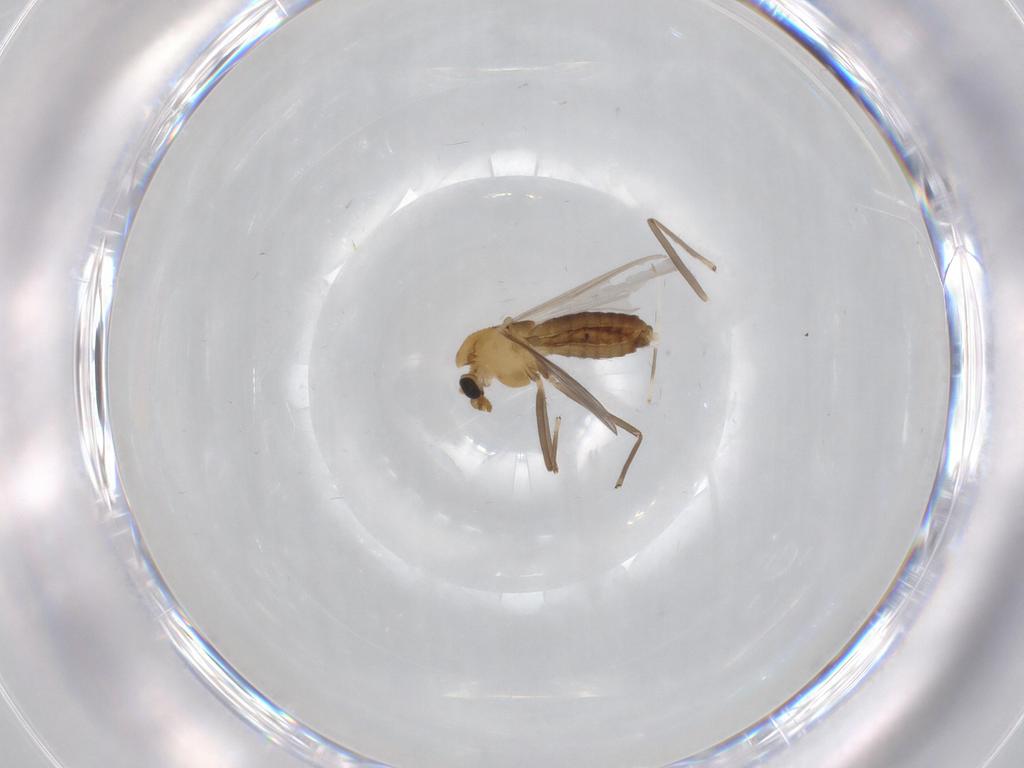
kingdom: Animalia
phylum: Arthropoda
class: Insecta
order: Diptera
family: Chironomidae
